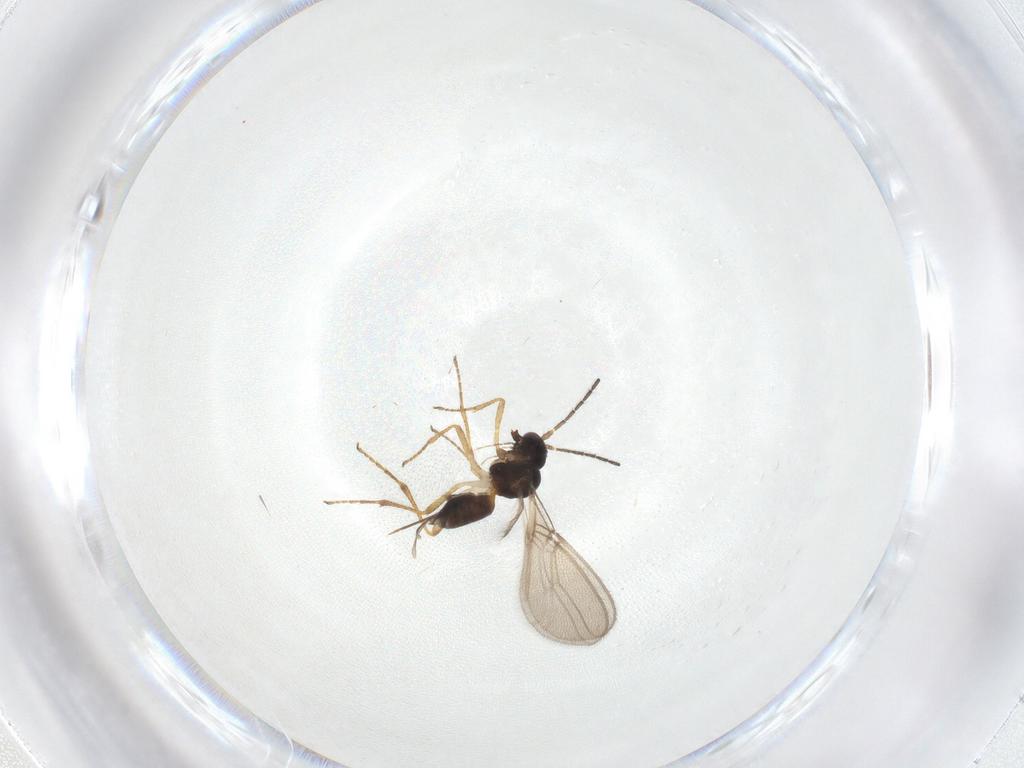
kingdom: Animalia
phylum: Arthropoda
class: Insecta
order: Hymenoptera
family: Braconidae
